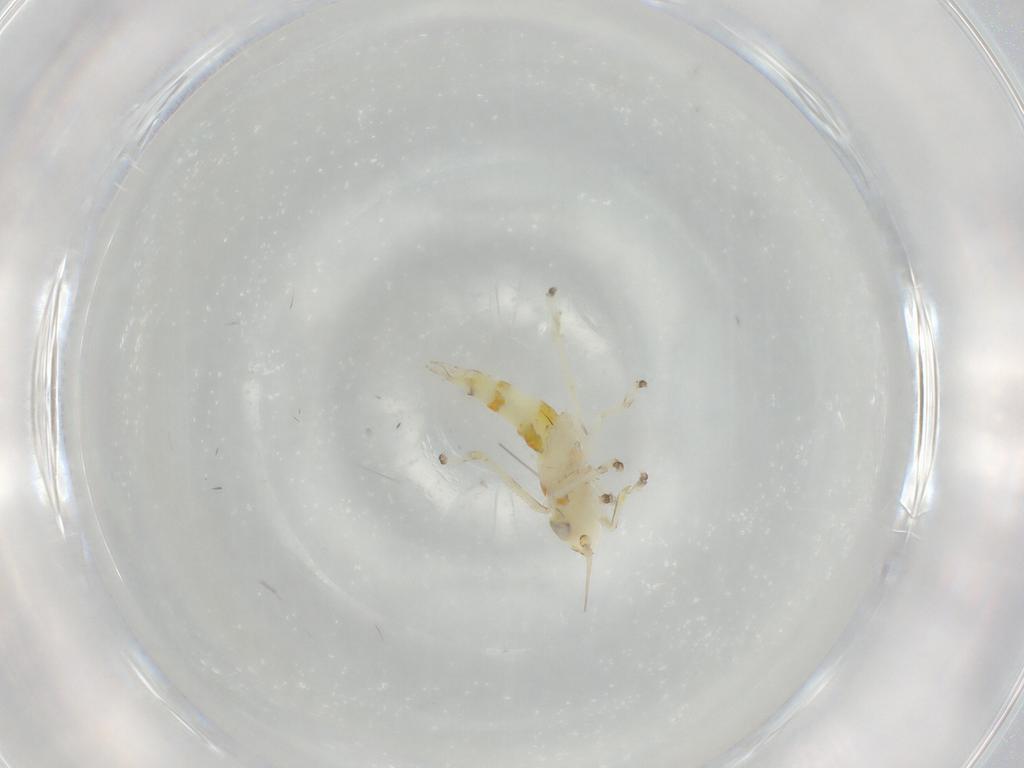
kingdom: Animalia
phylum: Arthropoda
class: Insecta
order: Hemiptera
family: Cicadellidae
